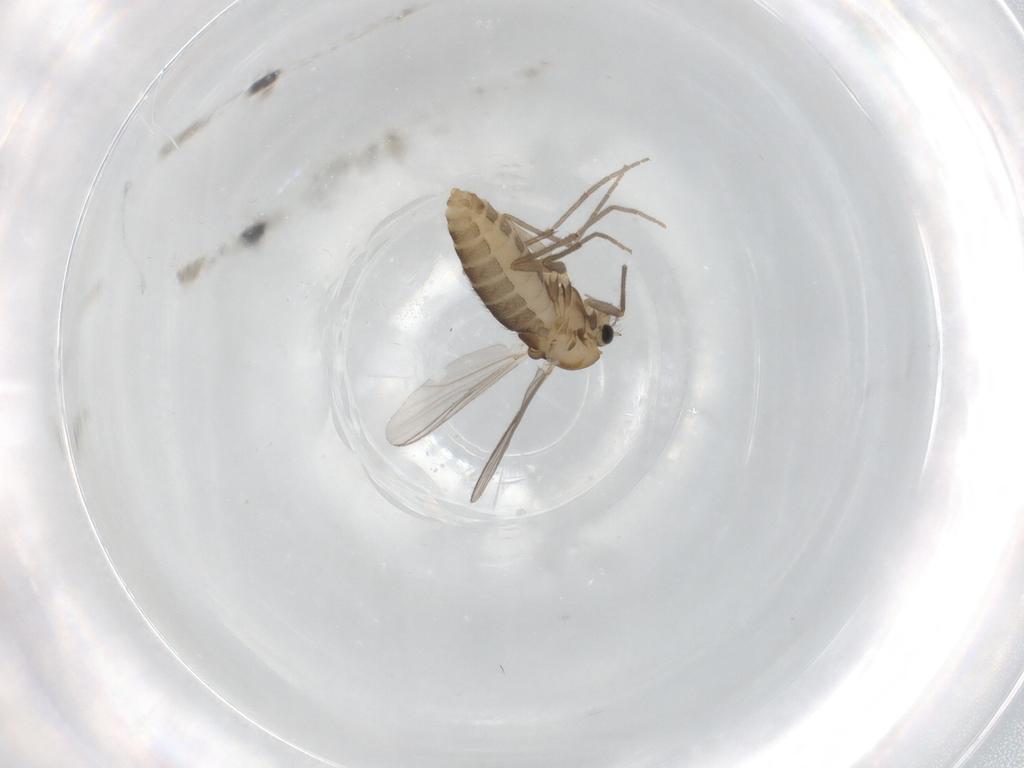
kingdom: Animalia
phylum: Arthropoda
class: Insecta
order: Diptera
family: Chironomidae
